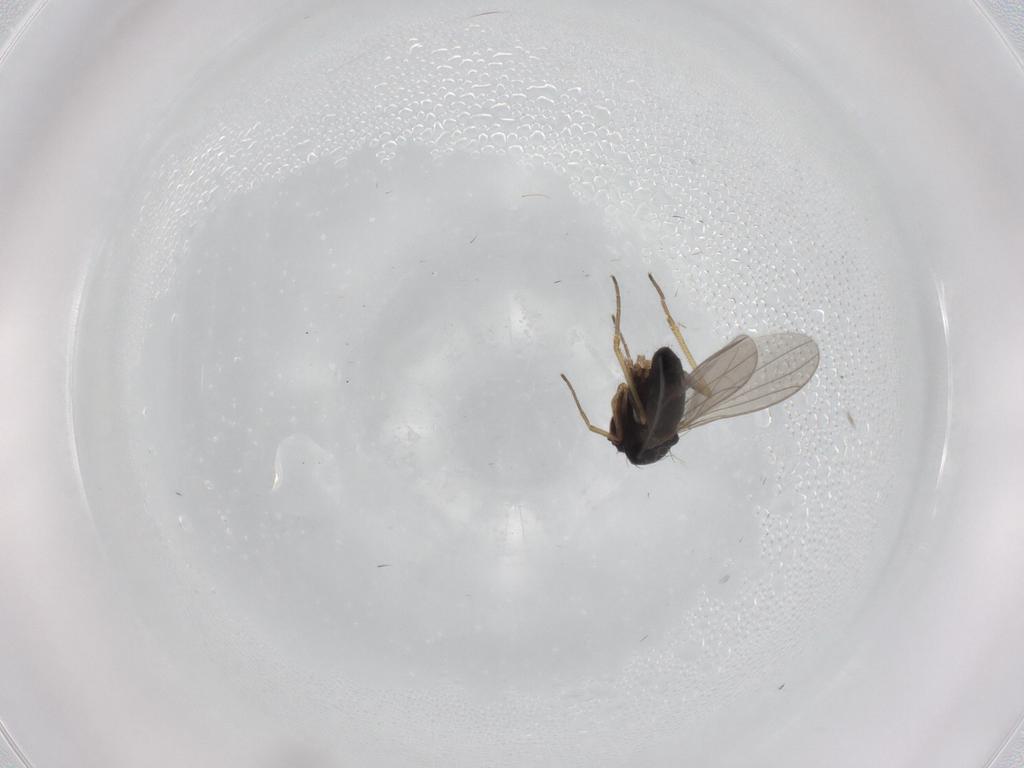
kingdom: Animalia
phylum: Arthropoda
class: Insecta
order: Diptera
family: Cecidomyiidae
